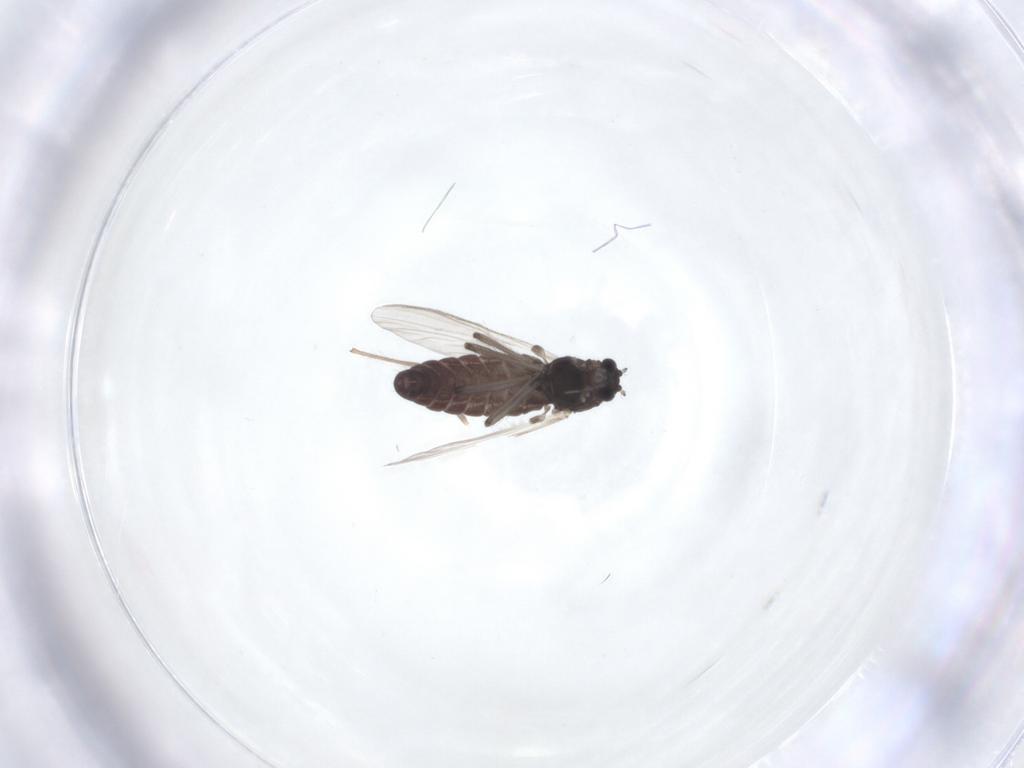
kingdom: Animalia
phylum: Arthropoda
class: Insecta
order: Diptera
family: Chironomidae
